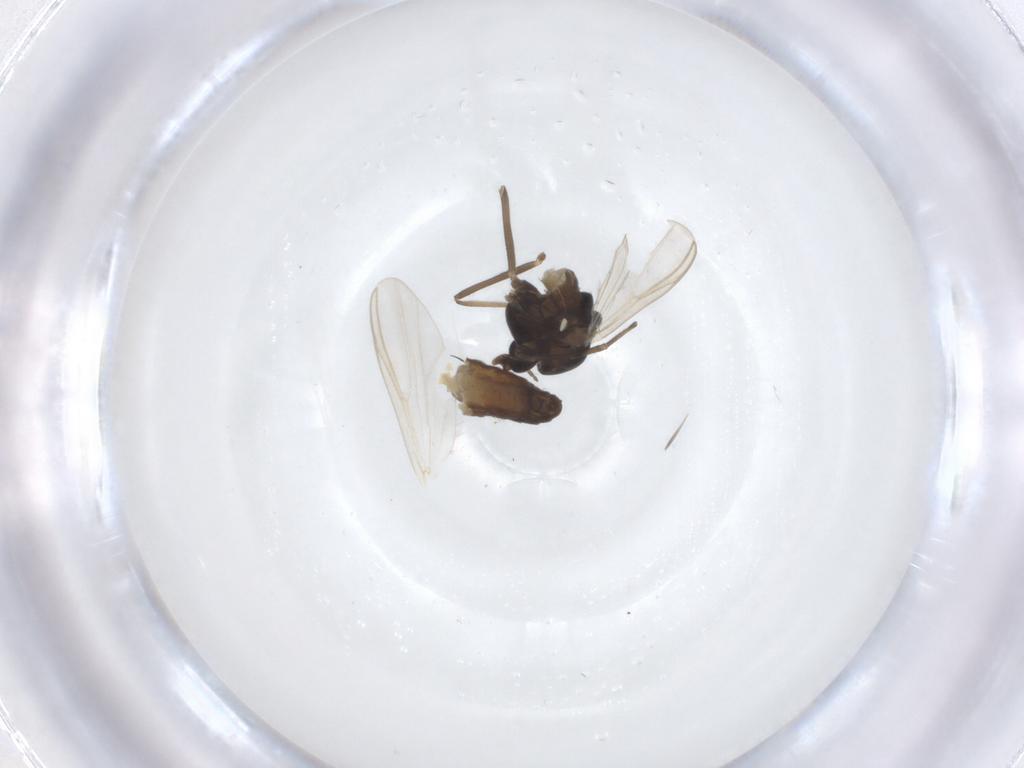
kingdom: Animalia
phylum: Arthropoda
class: Insecta
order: Diptera
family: Chironomidae
